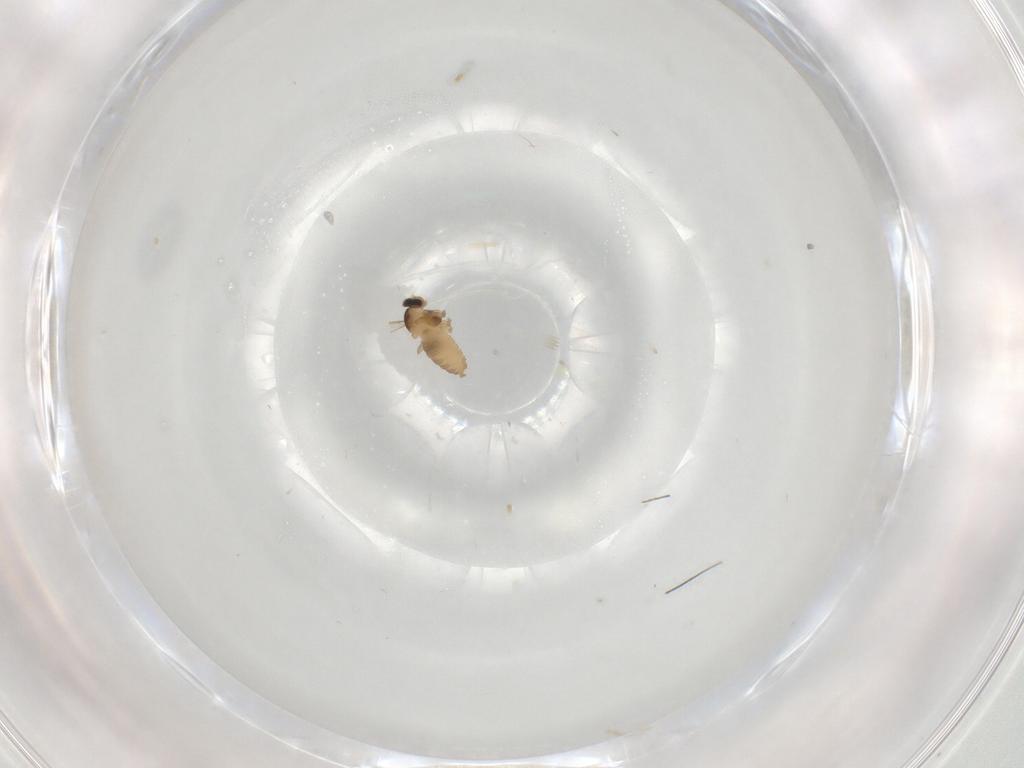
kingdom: Animalia
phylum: Arthropoda
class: Insecta
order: Diptera
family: Cecidomyiidae
